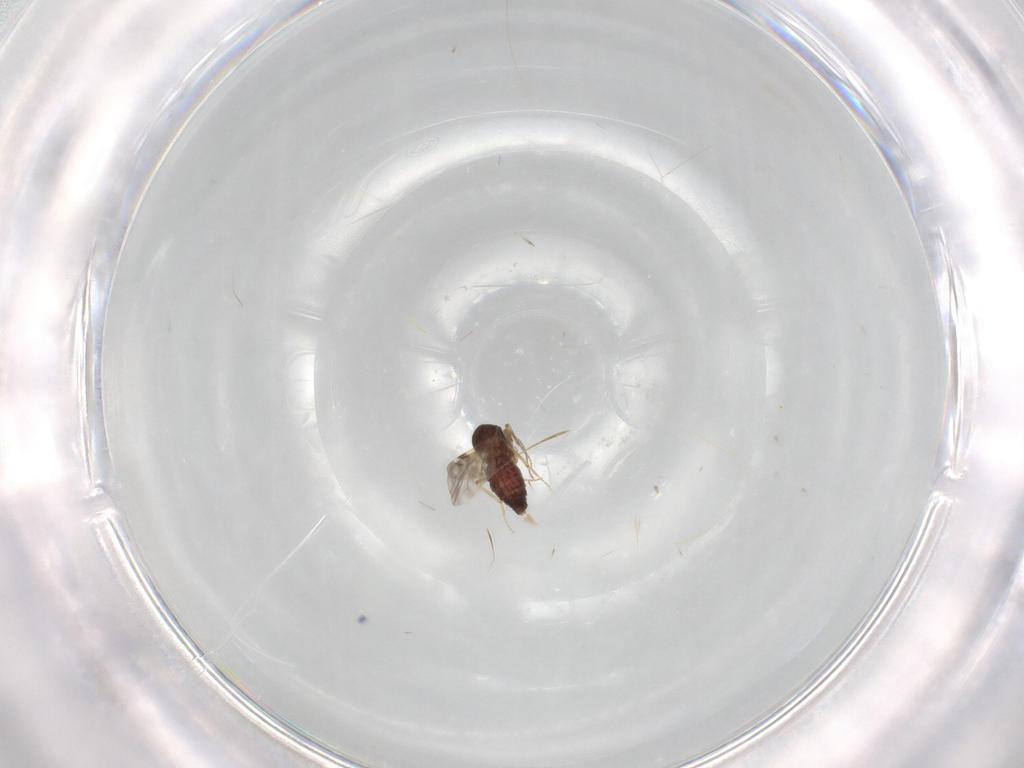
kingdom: Animalia
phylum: Arthropoda
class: Insecta
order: Diptera
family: Ceratopogonidae
